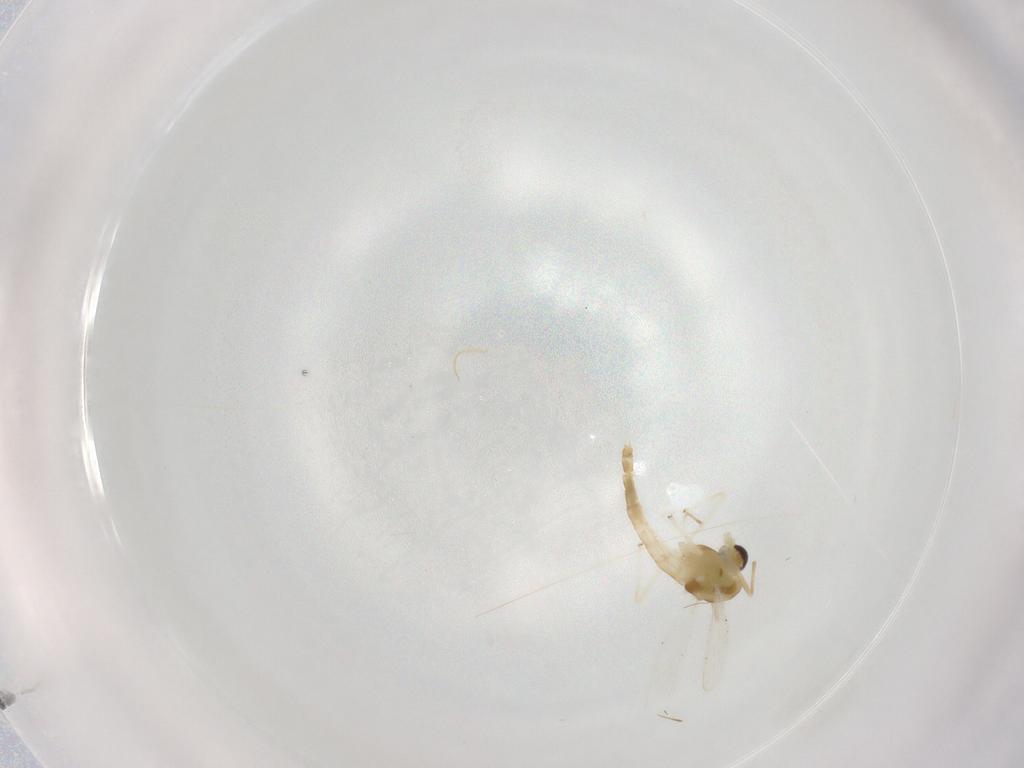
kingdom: Animalia
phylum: Arthropoda
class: Insecta
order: Diptera
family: Chironomidae
